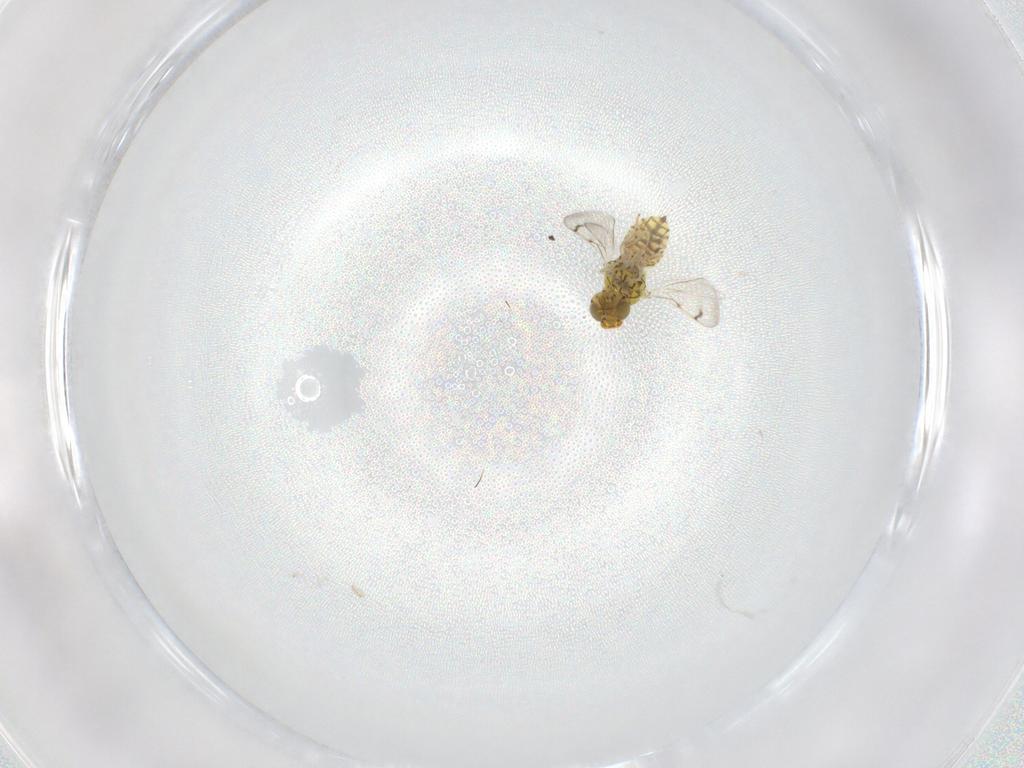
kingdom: Animalia
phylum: Arthropoda
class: Insecta
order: Hymenoptera
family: Eulophidae
